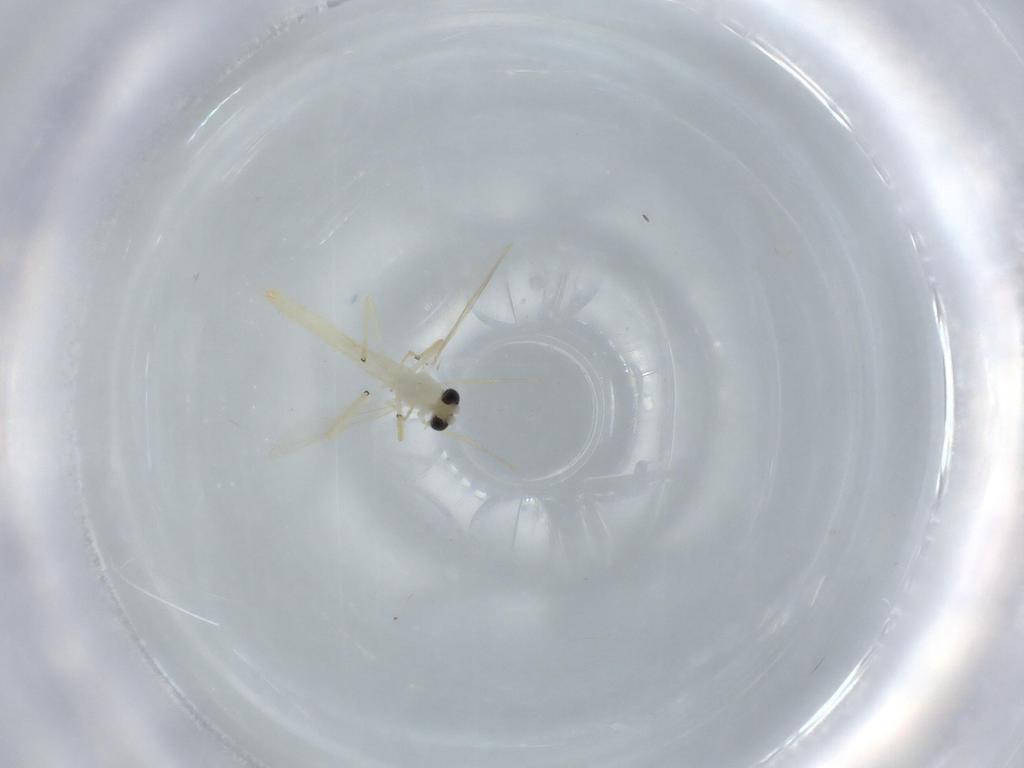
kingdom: Animalia
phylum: Arthropoda
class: Insecta
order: Diptera
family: Chironomidae
